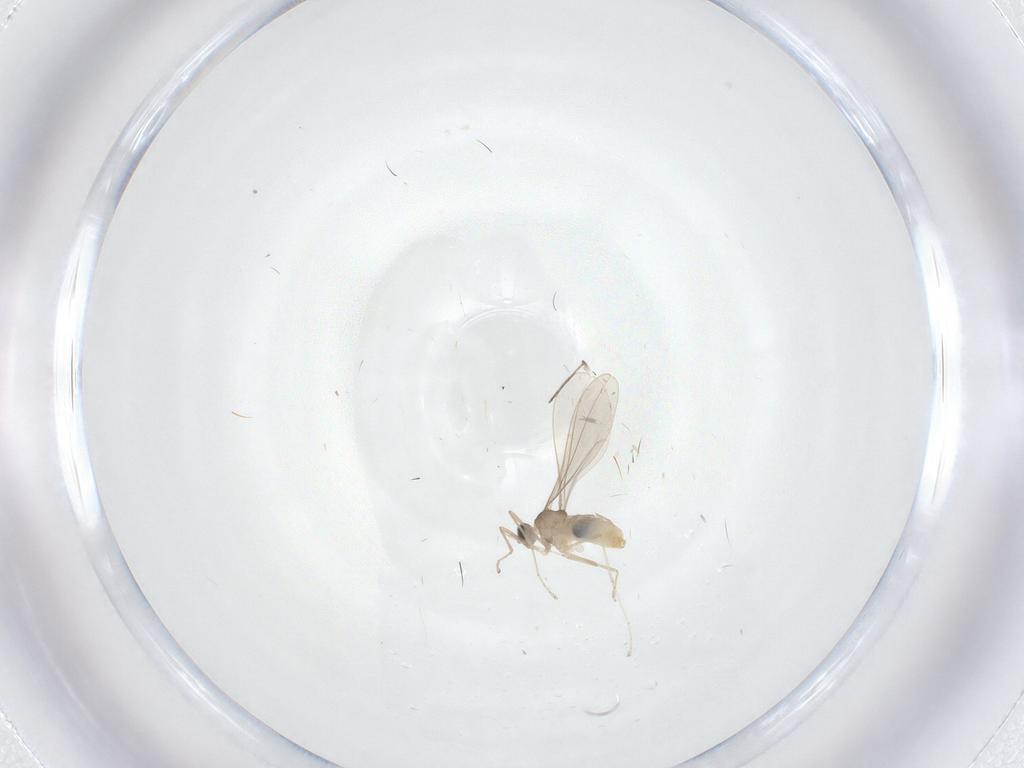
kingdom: Animalia
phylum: Arthropoda
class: Insecta
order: Diptera
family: Cecidomyiidae
